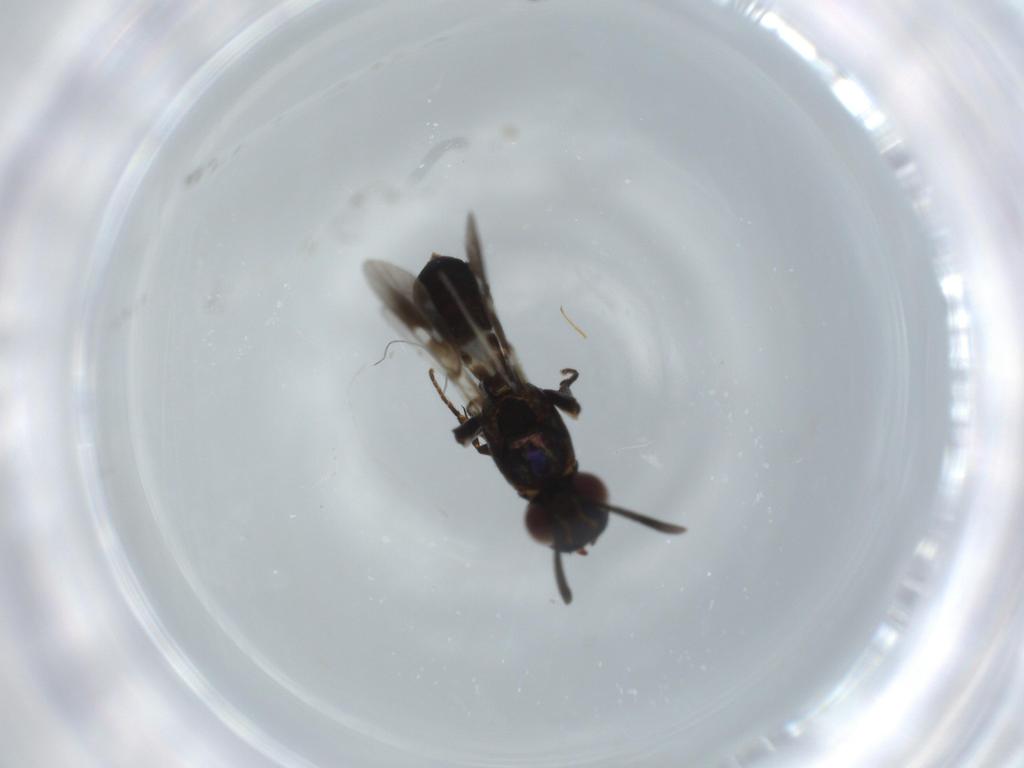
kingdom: Animalia
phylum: Arthropoda
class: Insecta
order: Hymenoptera
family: Eupelmidae
